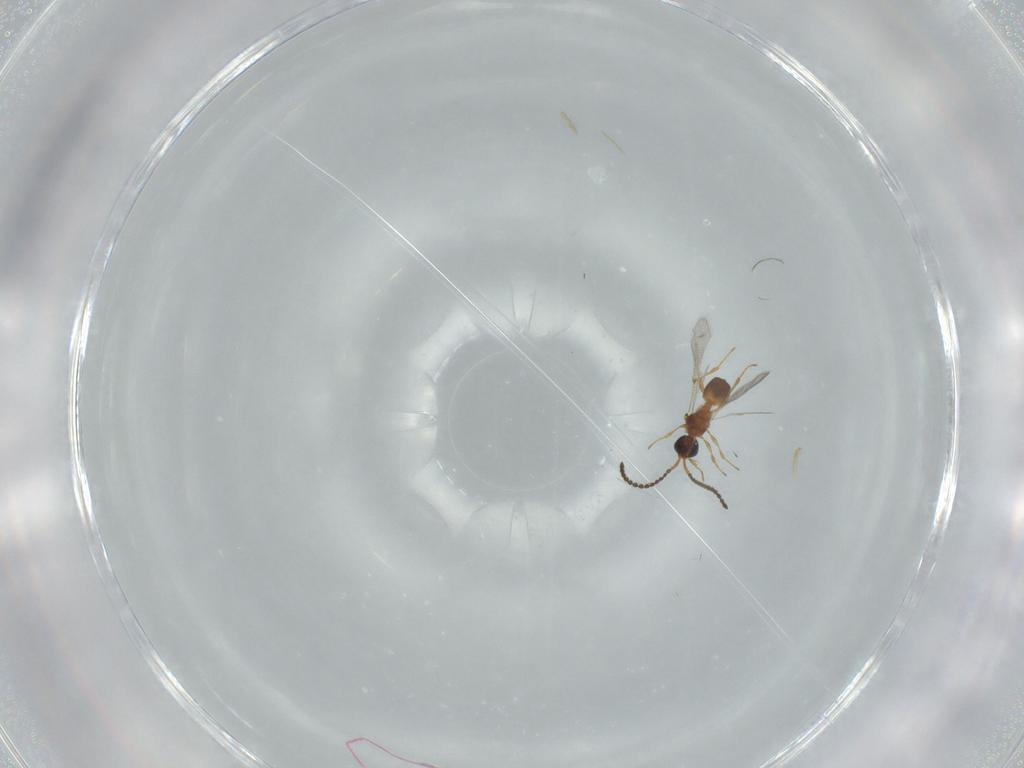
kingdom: Animalia
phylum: Arthropoda
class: Insecta
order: Hymenoptera
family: Diapriidae
